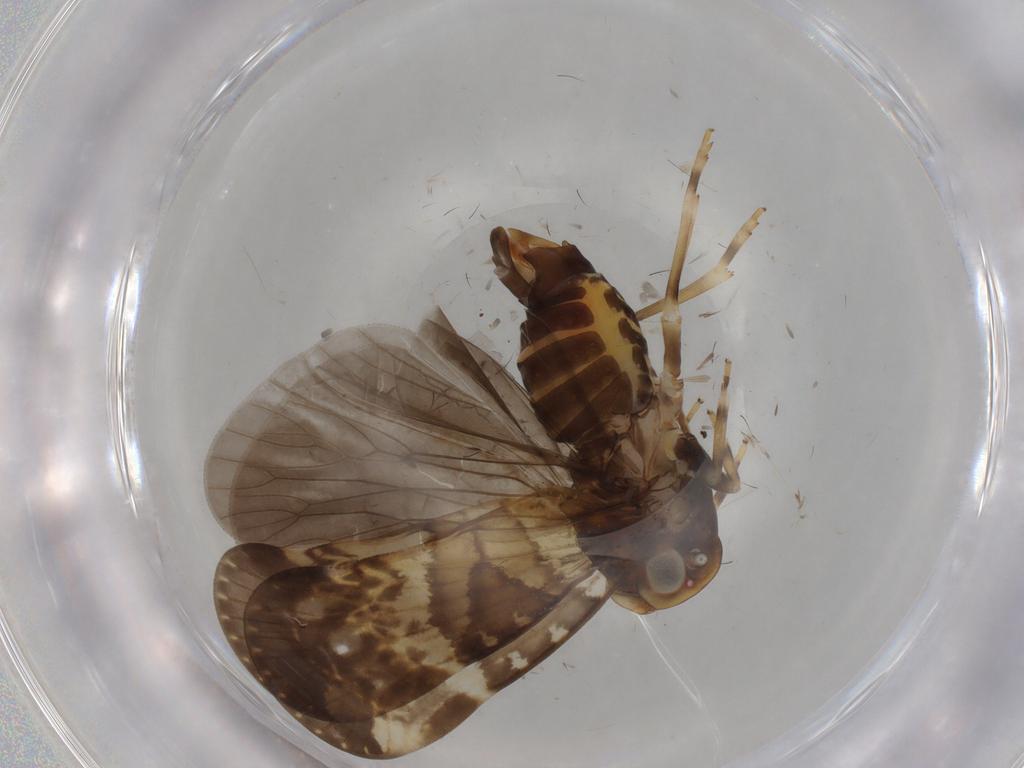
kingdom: Animalia
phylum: Arthropoda
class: Insecta
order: Hemiptera
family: Cixiidae
